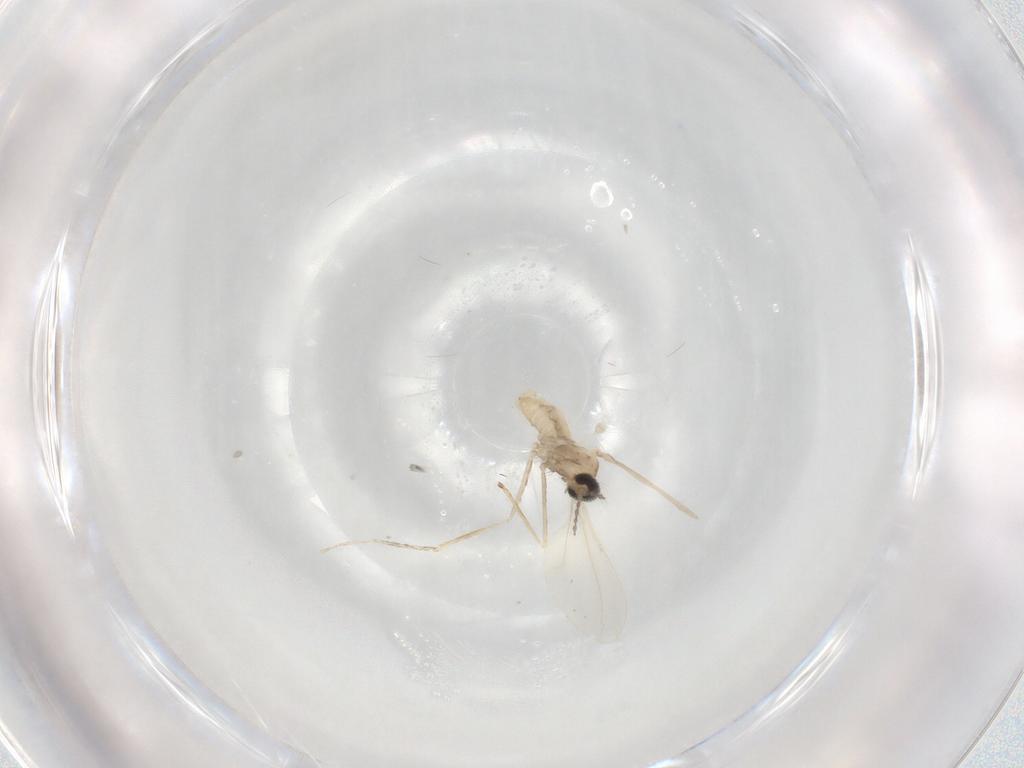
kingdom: Animalia
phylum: Arthropoda
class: Insecta
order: Diptera
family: Cecidomyiidae
